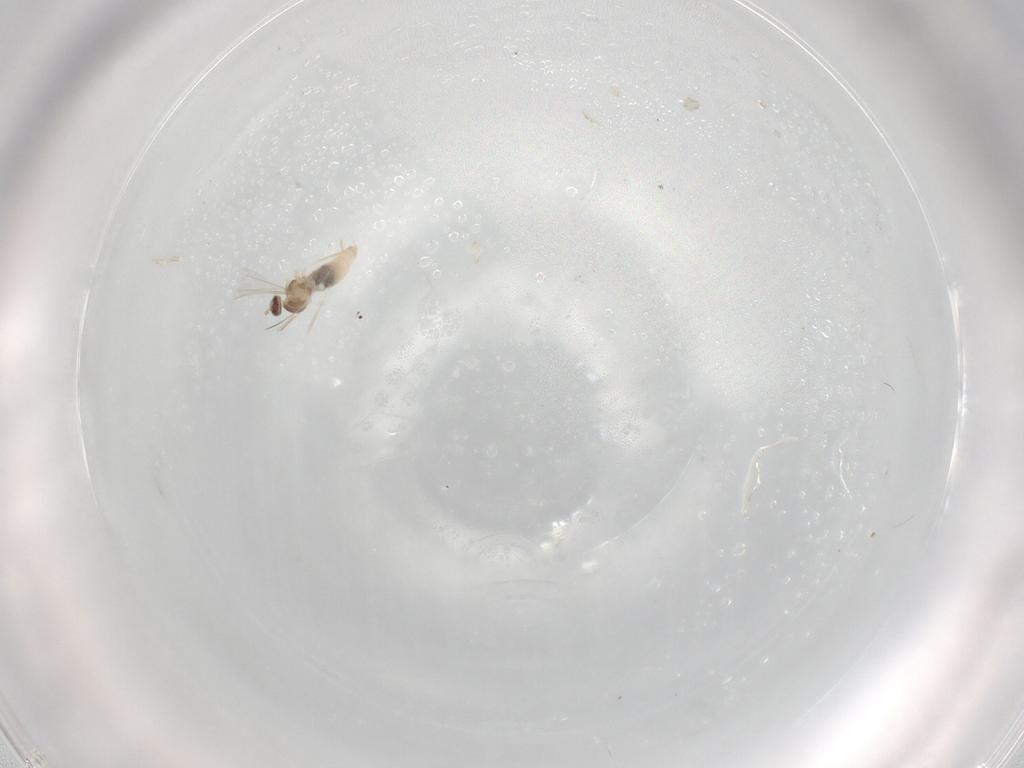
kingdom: Animalia
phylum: Arthropoda
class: Insecta
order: Diptera
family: Cecidomyiidae
